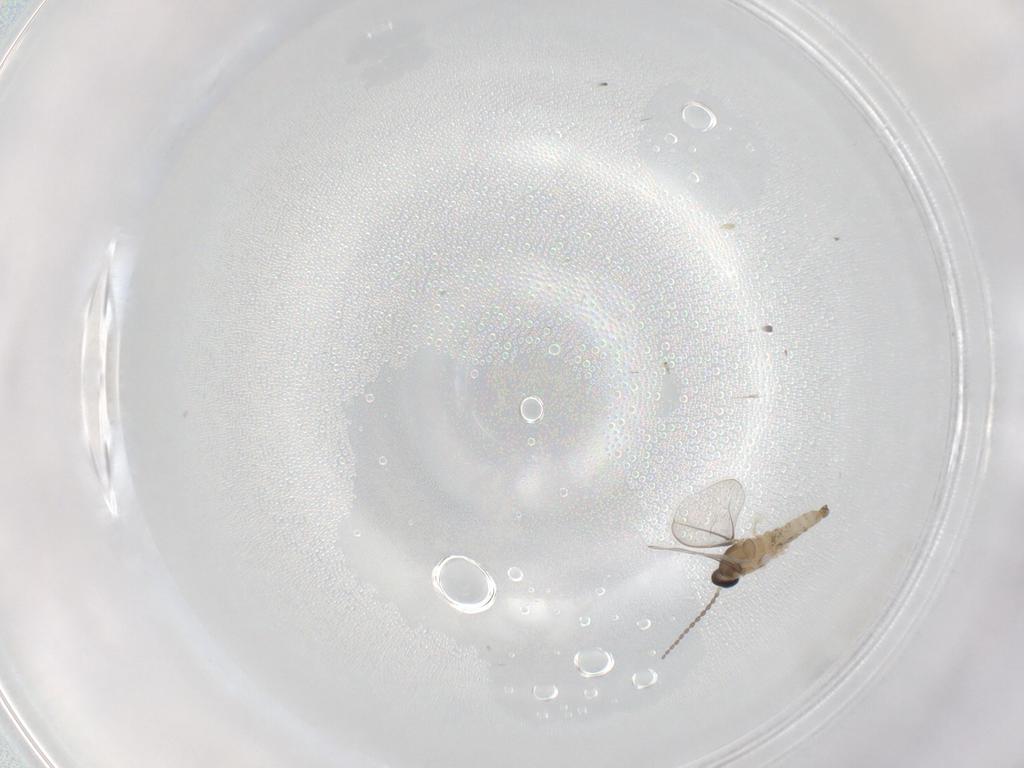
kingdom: Animalia
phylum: Arthropoda
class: Insecta
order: Diptera
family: Cecidomyiidae
